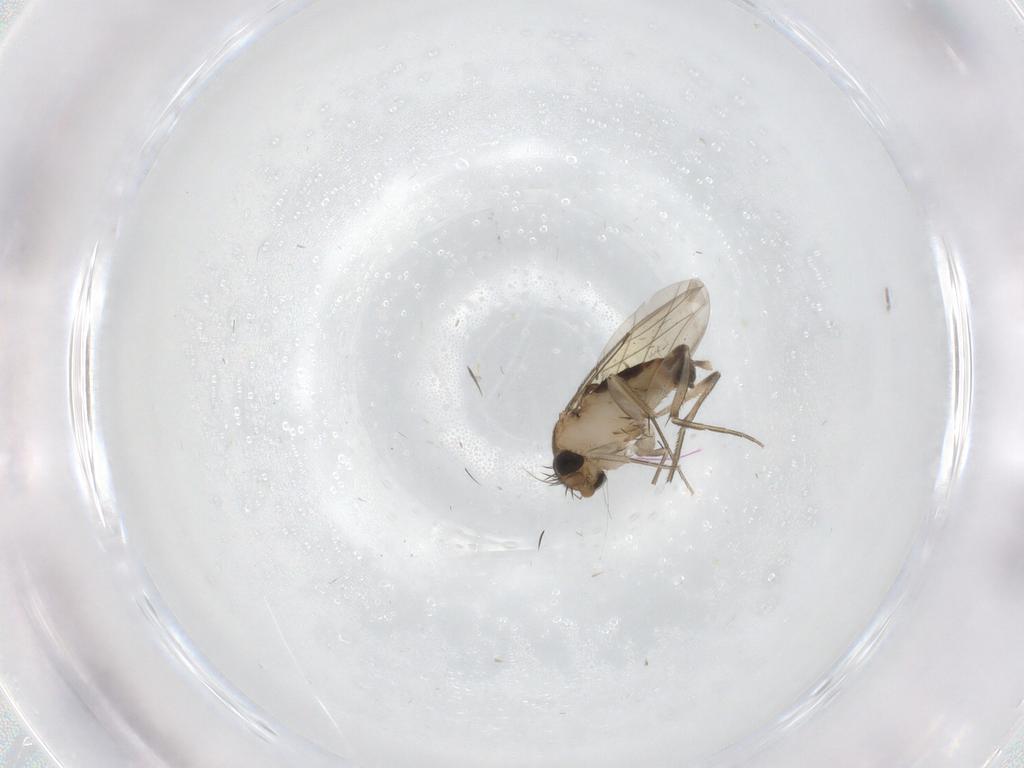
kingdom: Animalia
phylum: Arthropoda
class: Insecta
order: Diptera
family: Phoridae
